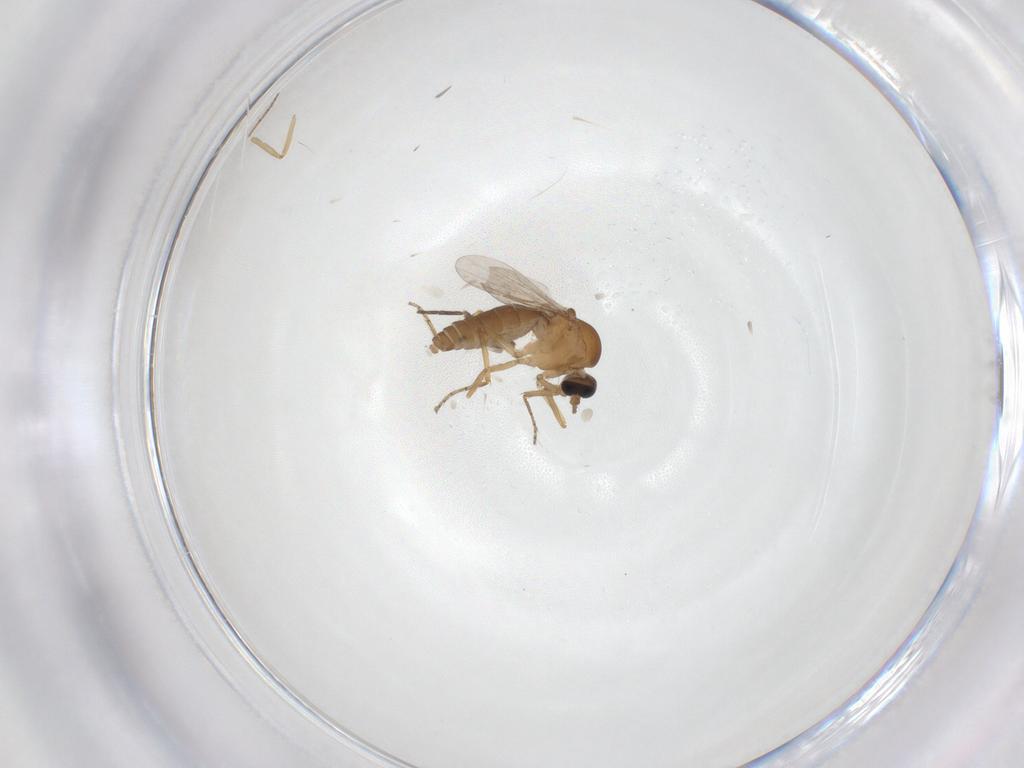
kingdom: Animalia
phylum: Arthropoda
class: Insecta
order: Diptera
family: Ceratopogonidae
